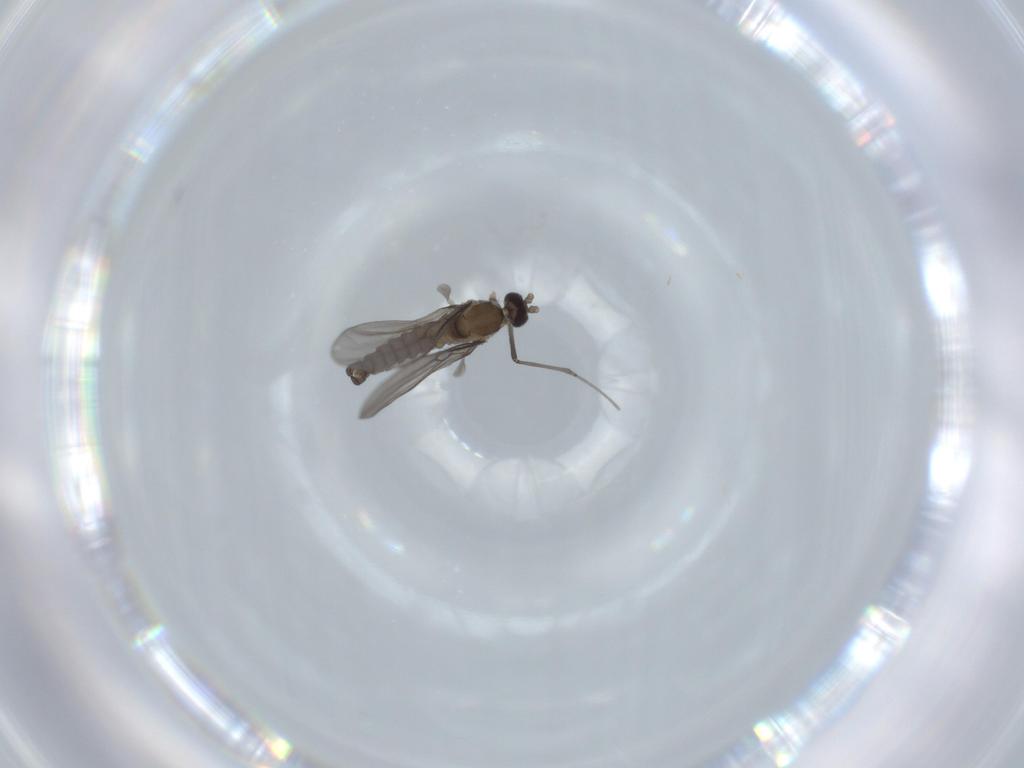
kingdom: Animalia
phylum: Arthropoda
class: Insecta
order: Diptera
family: Cecidomyiidae
